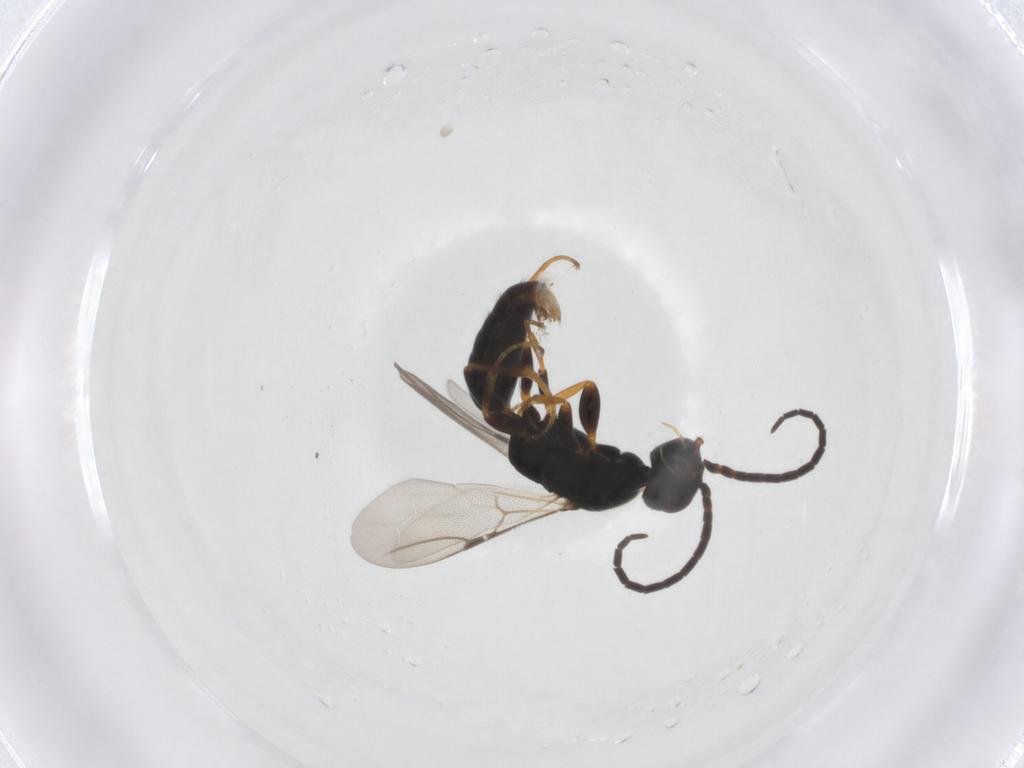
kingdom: Animalia
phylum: Arthropoda
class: Insecta
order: Hymenoptera
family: Bethylidae
